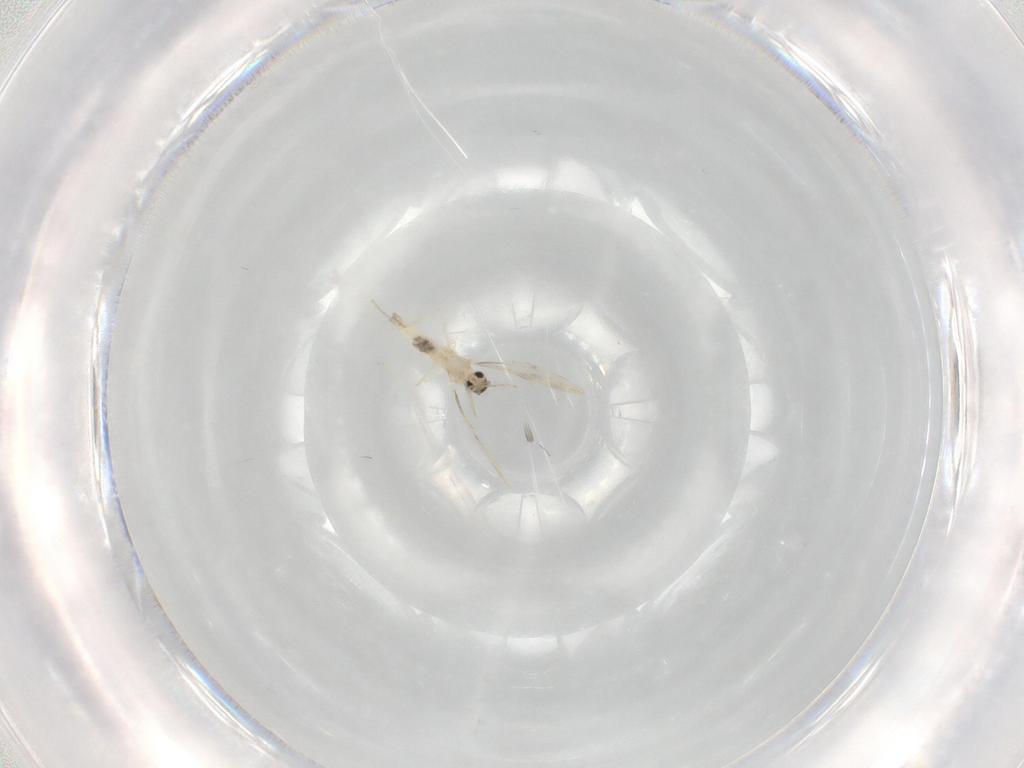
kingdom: Animalia
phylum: Arthropoda
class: Insecta
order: Diptera
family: Cecidomyiidae
